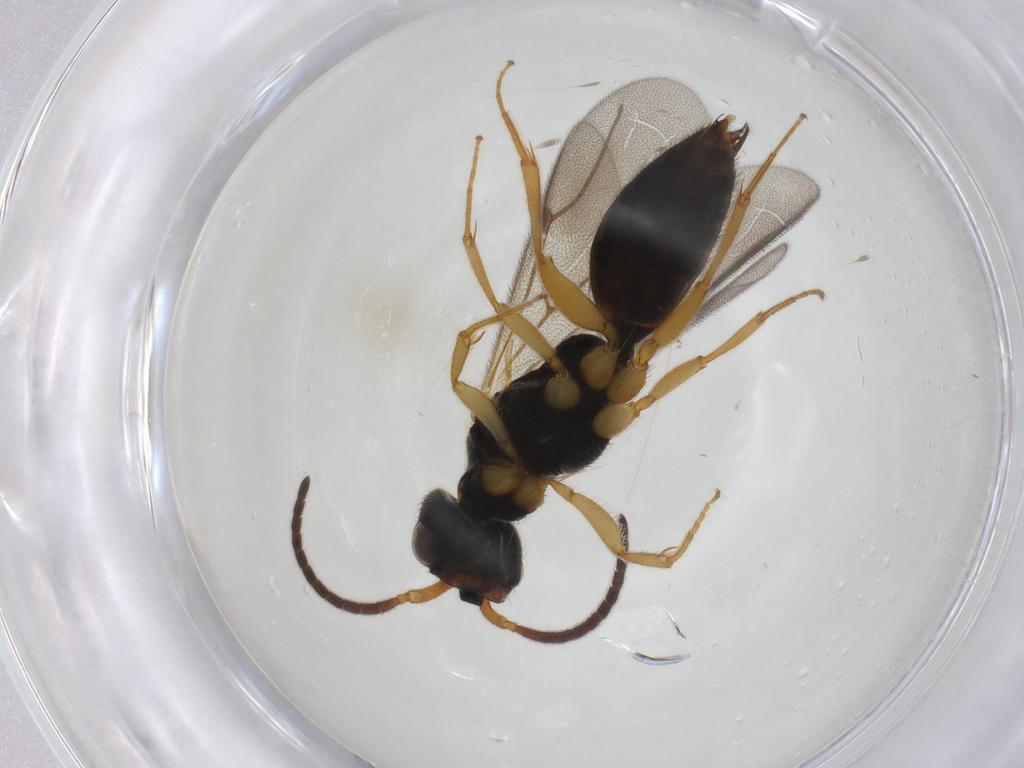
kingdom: Animalia
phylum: Arthropoda
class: Insecta
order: Hymenoptera
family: Bethylidae
